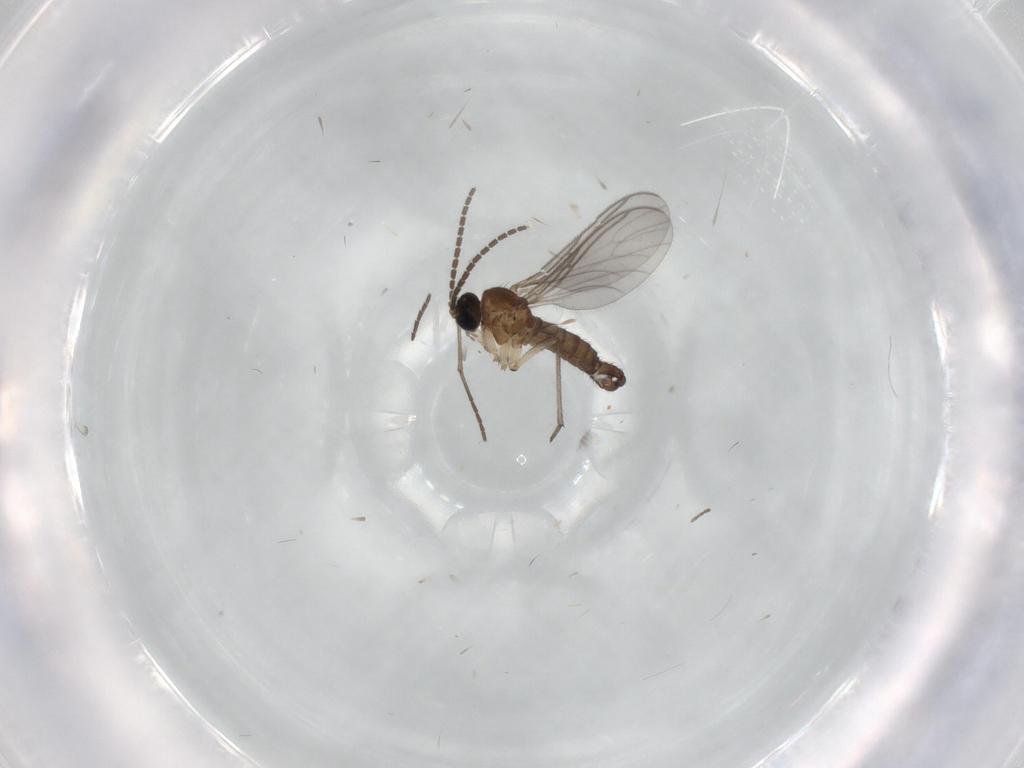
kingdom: Animalia
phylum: Arthropoda
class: Insecta
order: Diptera
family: Sciaridae
